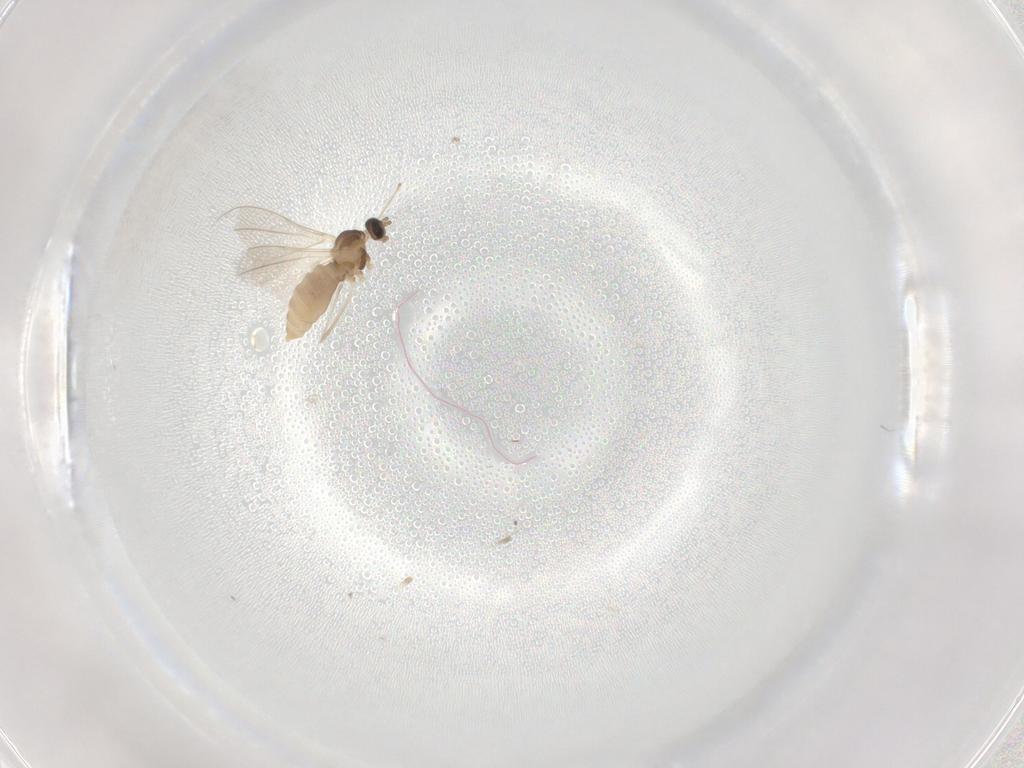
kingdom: Animalia
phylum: Arthropoda
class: Insecta
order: Diptera
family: Cecidomyiidae
